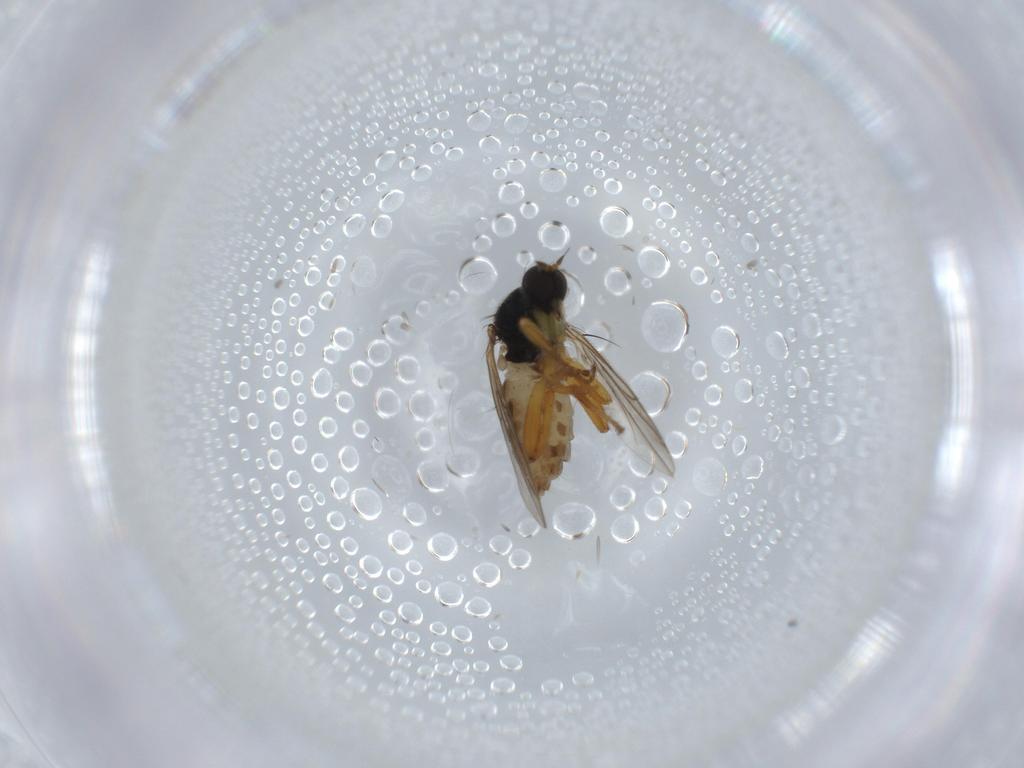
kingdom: Animalia
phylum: Arthropoda
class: Insecta
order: Diptera
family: Hybotidae
